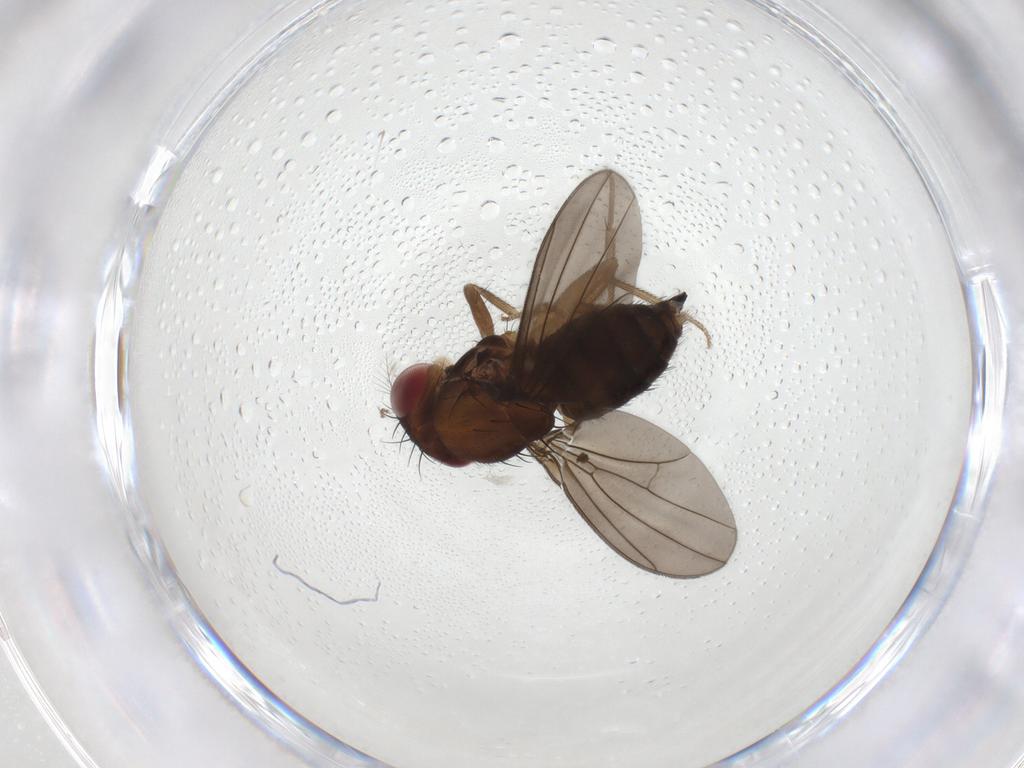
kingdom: Animalia
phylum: Arthropoda
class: Insecta
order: Diptera
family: Drosophilidae
